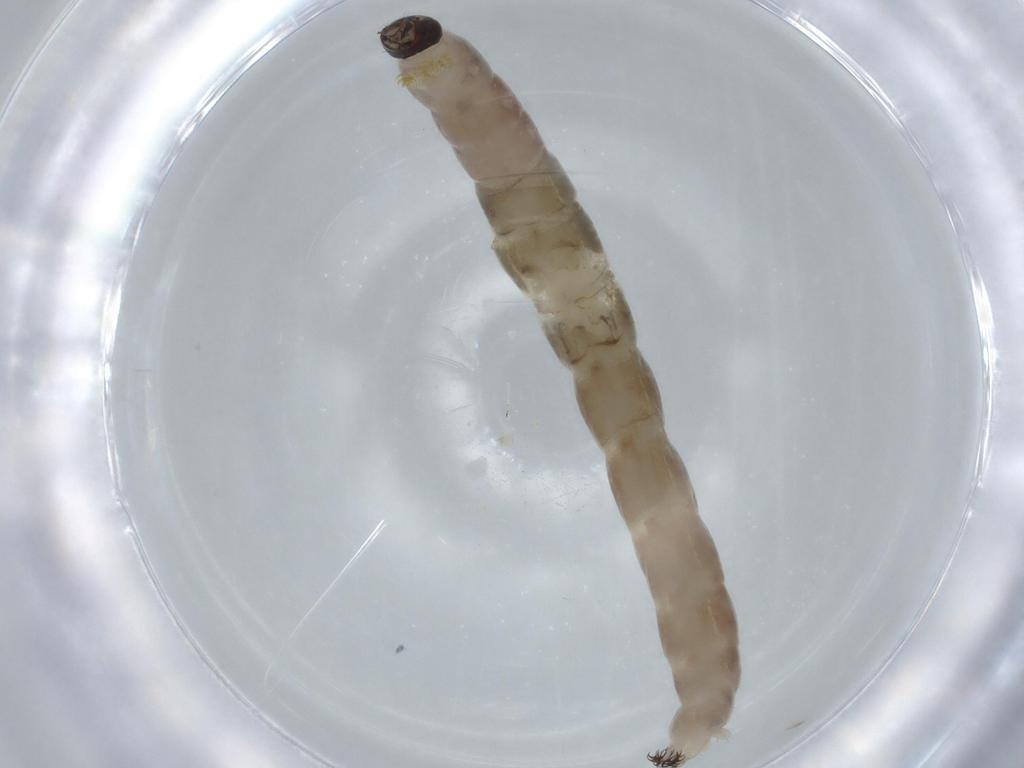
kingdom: Animalia
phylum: Arthropoda
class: Insecta
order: Diptera
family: Chironomidae
